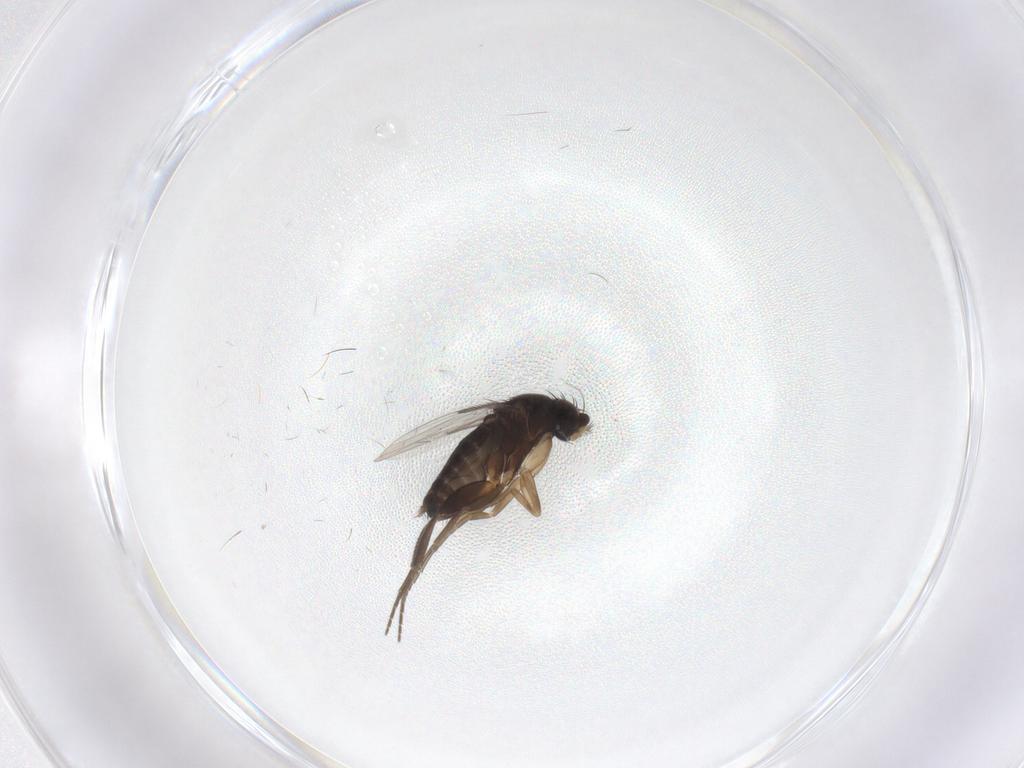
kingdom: Animalia
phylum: Arthropoda
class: Insecta
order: Diptera
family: Phoridae
